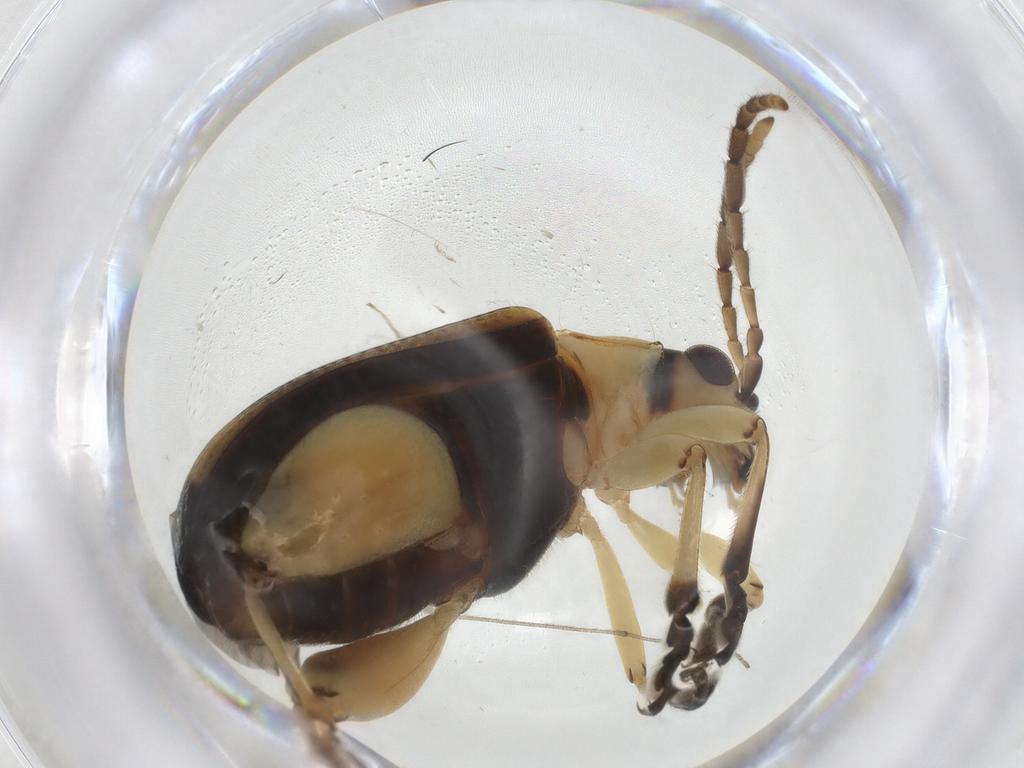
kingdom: Animalia
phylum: Arthropoda
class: Insecta
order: Coleoptera
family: Chrysomelidae
